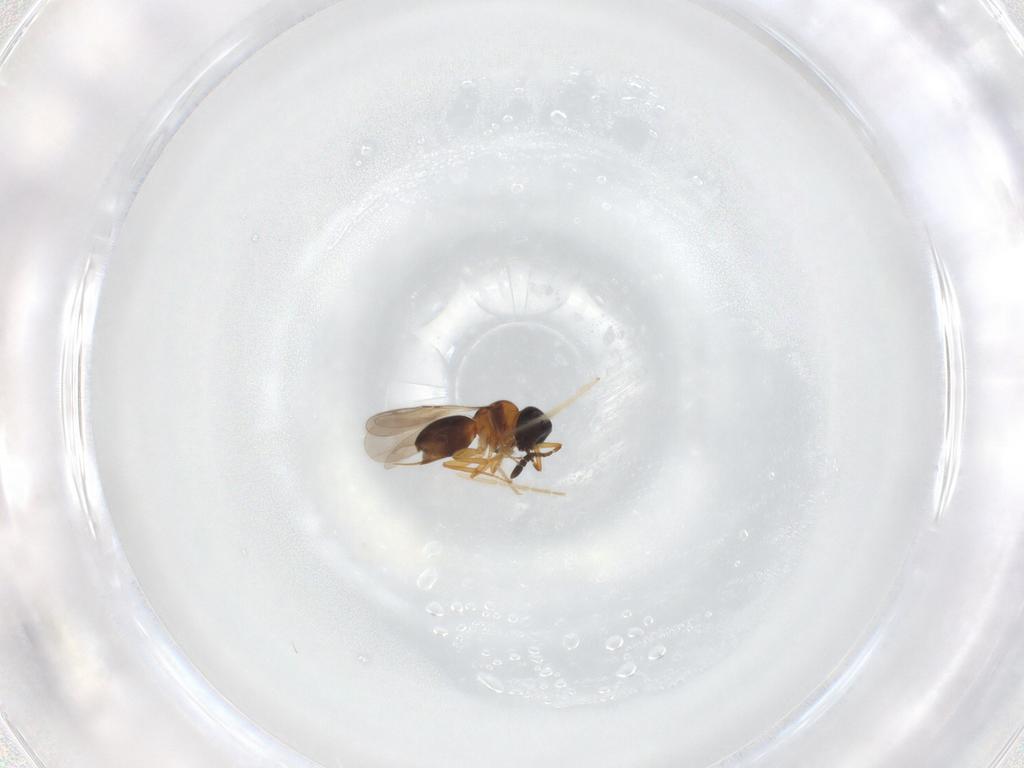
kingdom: Animalia
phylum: Arthropoda
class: Insecta
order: Hymenoptera
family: Ceraphronidae
